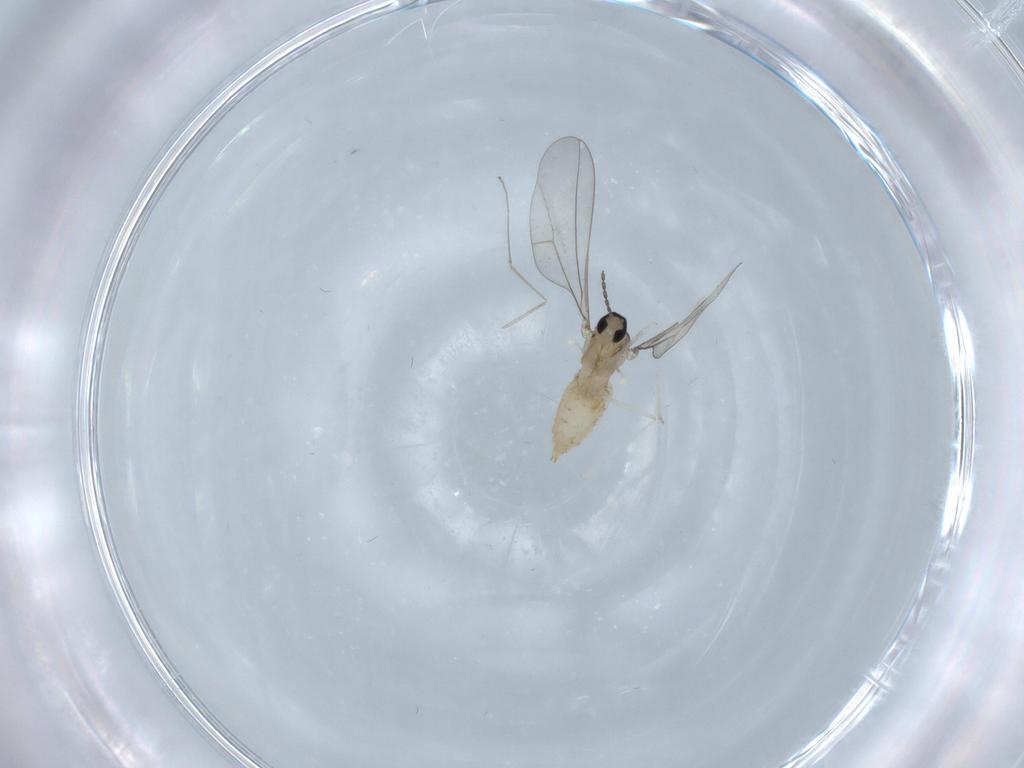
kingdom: Animalia
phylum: Arthropoda
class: Insecta
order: Diptera
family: Cecidomyiidae
